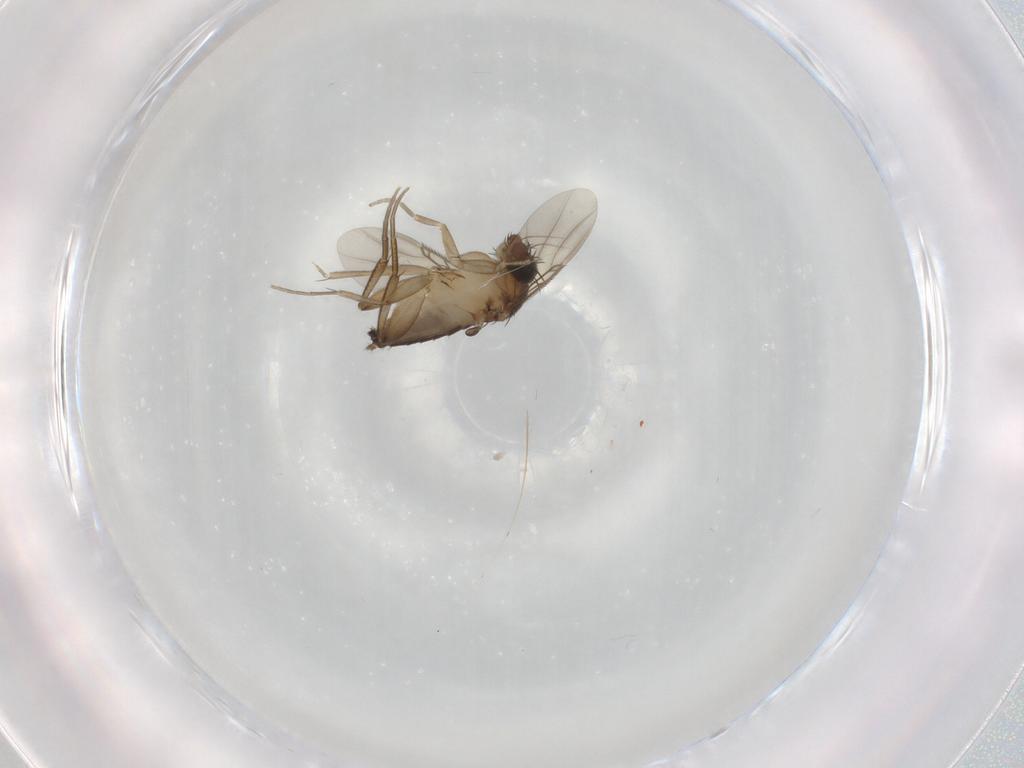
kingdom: Animalia
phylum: Arthropoda
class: Insecta
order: Diptera
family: Phoridae
